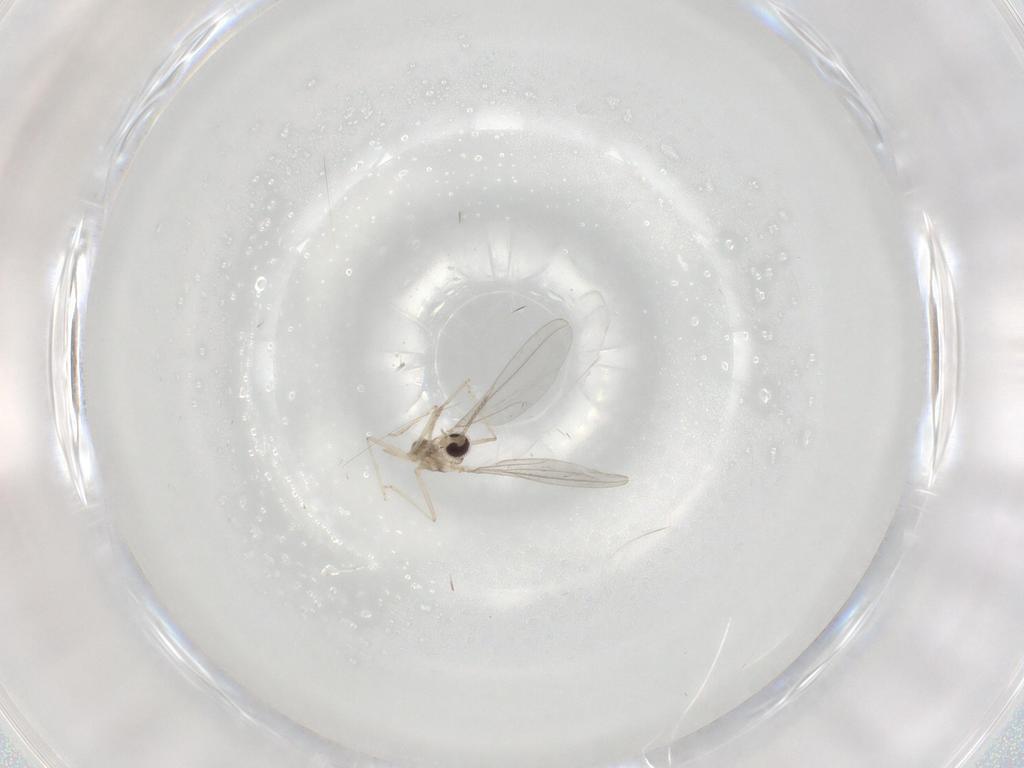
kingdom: Animalia
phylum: Arthropoda
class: Insecta
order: Diptera
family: Cecidomyiidae
